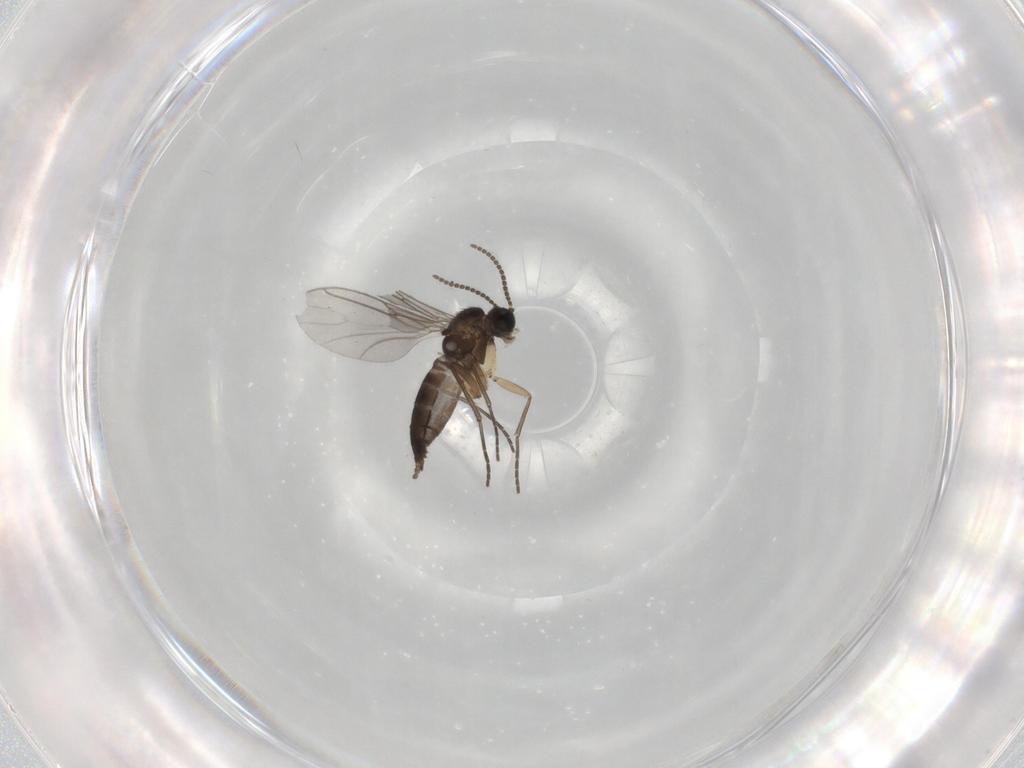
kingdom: Animalia
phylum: Arthropoda
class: Insecta
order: Diptera
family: Sciaridae
